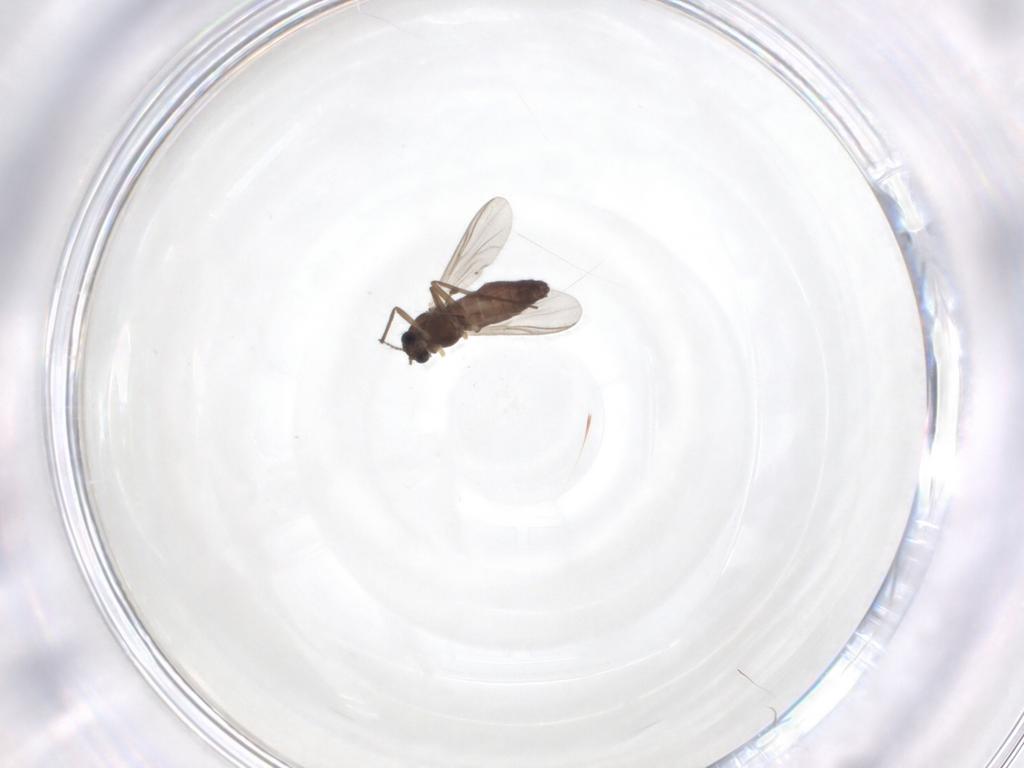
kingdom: Animalia
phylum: Arthropoda
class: Insecta
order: Diptera
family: Chironomidae
